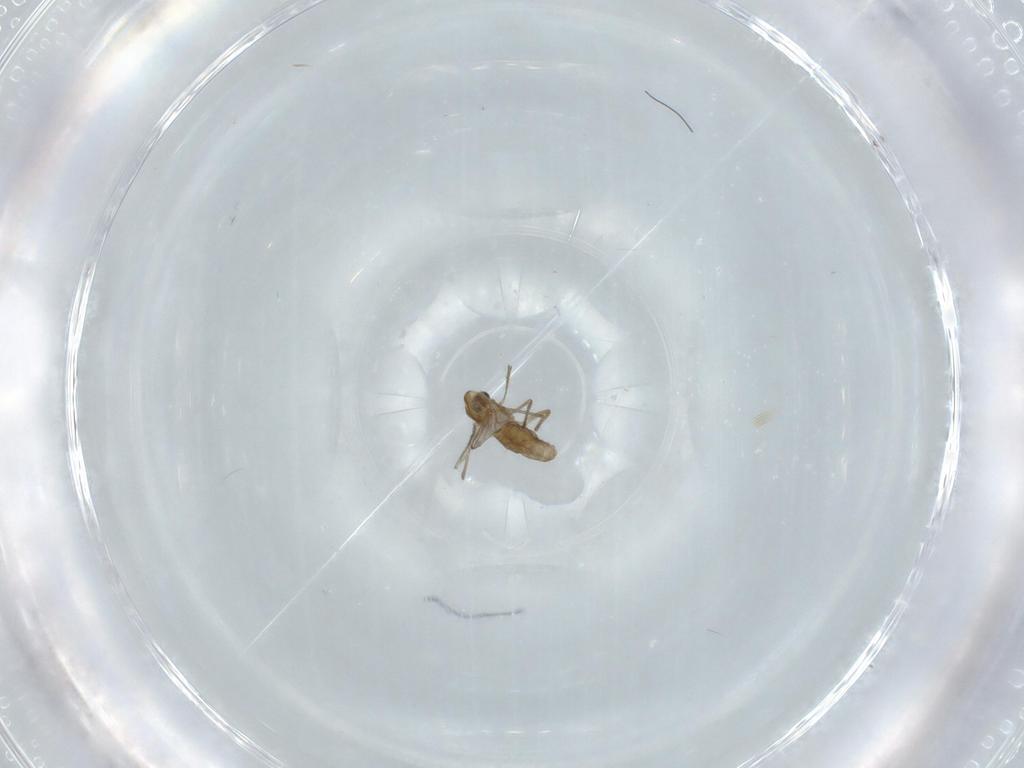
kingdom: Animalia
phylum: Arthropoda
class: Insecta
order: Diptera
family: Chironomidae
